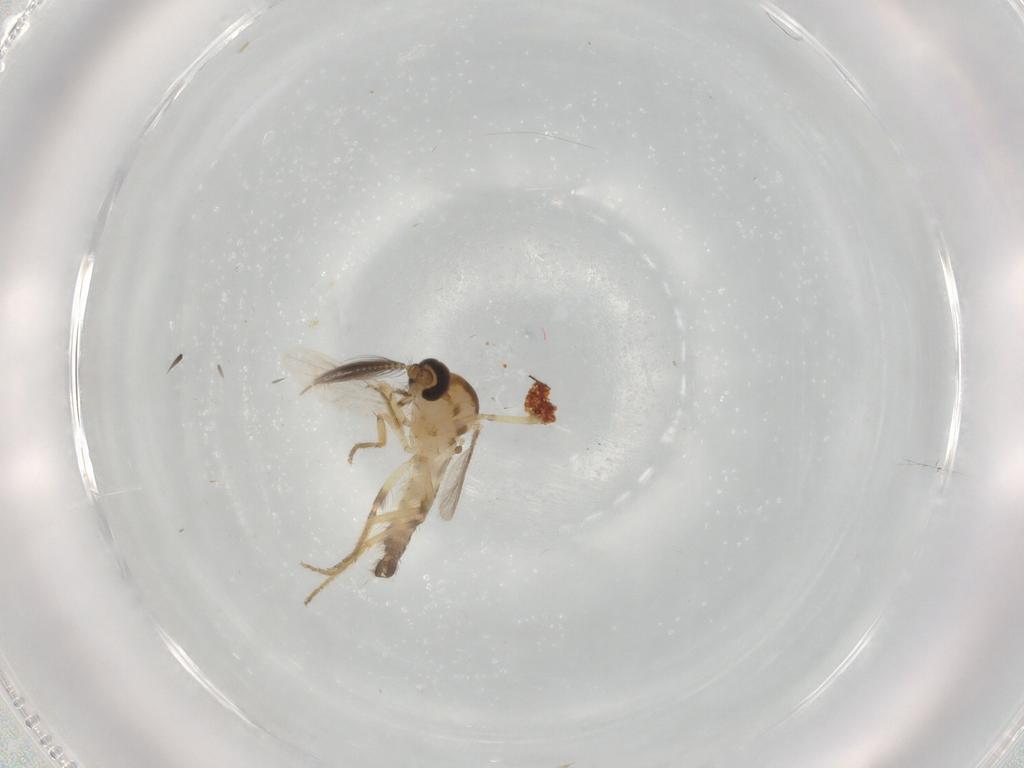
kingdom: Animalia
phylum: Arthropoda
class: Insecta
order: Diptera
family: Ceratopogonidae
